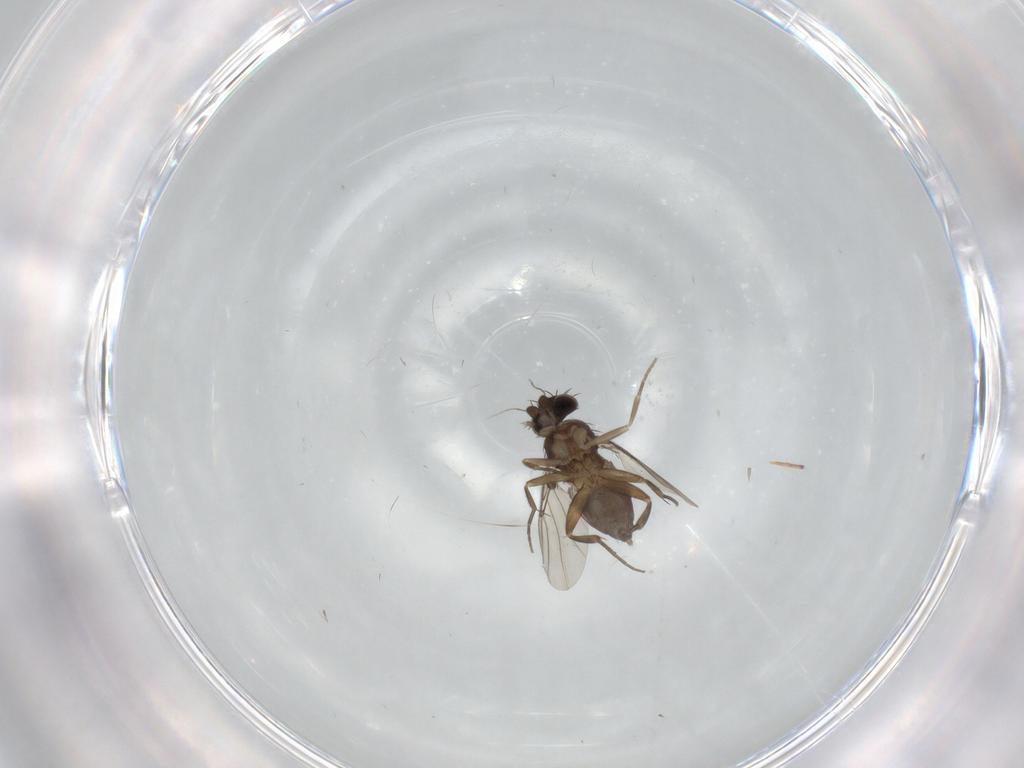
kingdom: Animalia
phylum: Arthropoda
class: Insecta
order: Diptera
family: Phoridae
